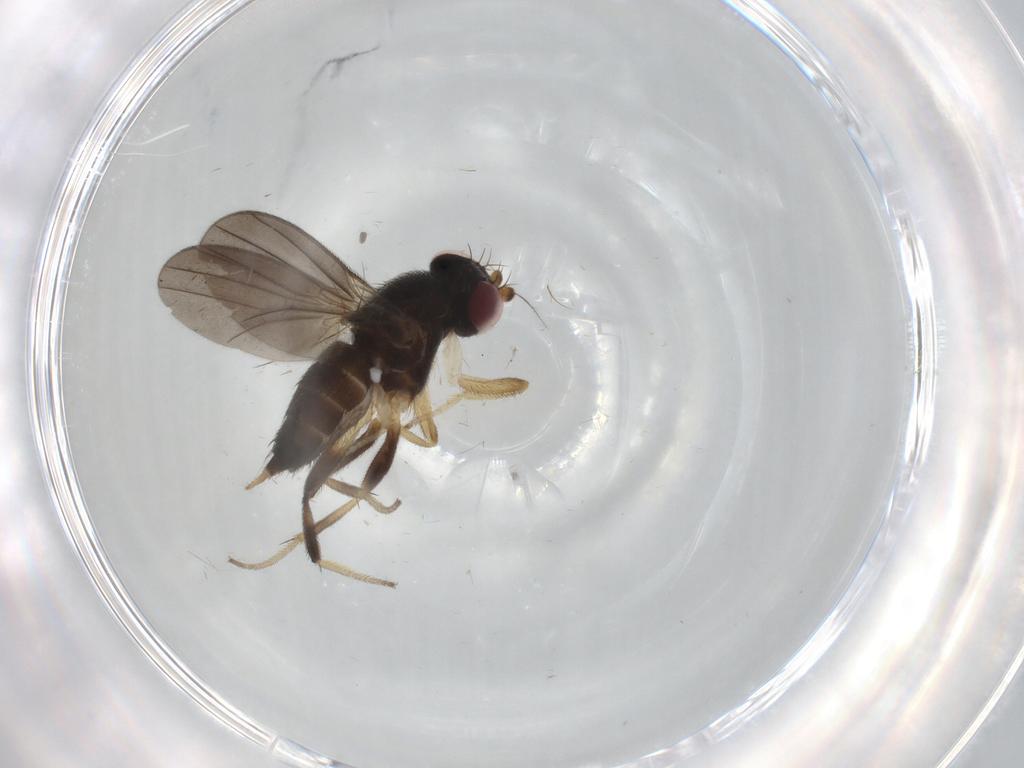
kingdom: Animalia
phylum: Arthropoda
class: Insecta
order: Diptera
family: Clusiidae
